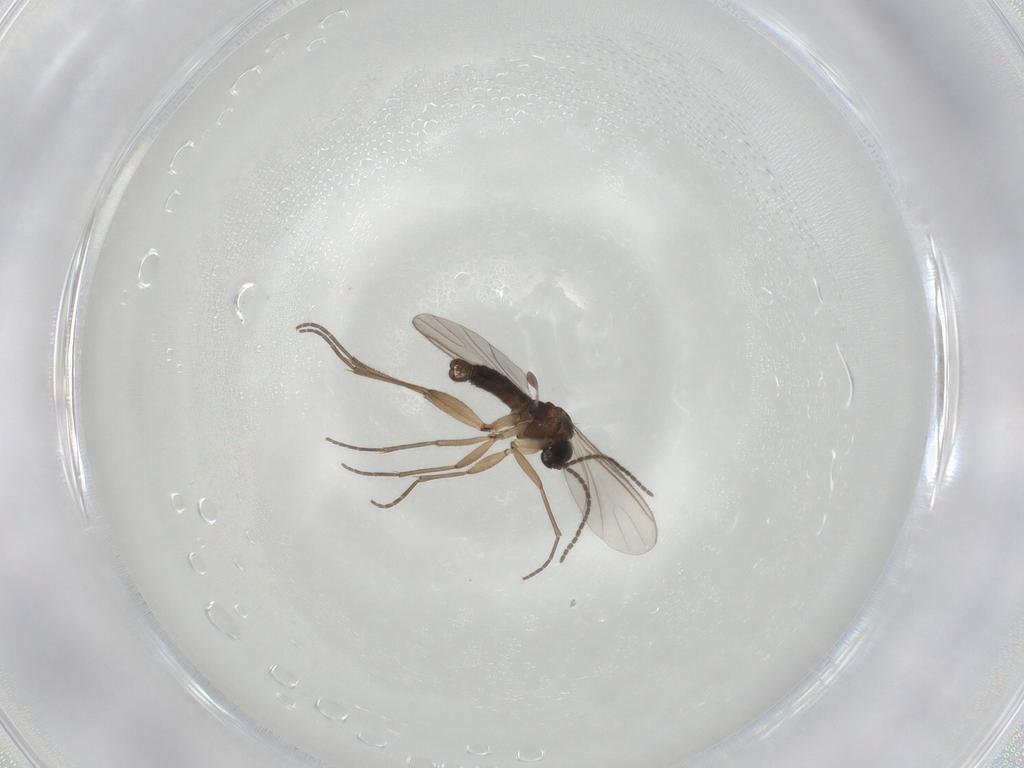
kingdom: Animalia
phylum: Arthropoda
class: Insecta
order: Diptera
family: Sciaridae
